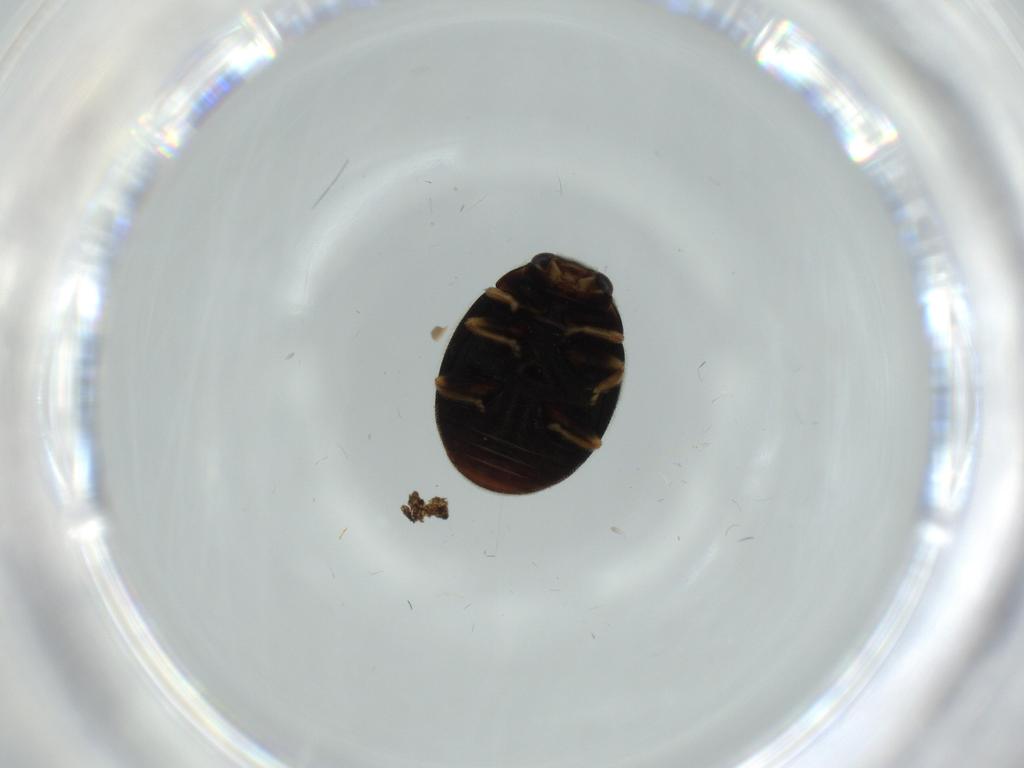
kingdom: Animalia
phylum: Arthropoda
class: Insecta
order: Coleoptera
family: Coccinellidae
